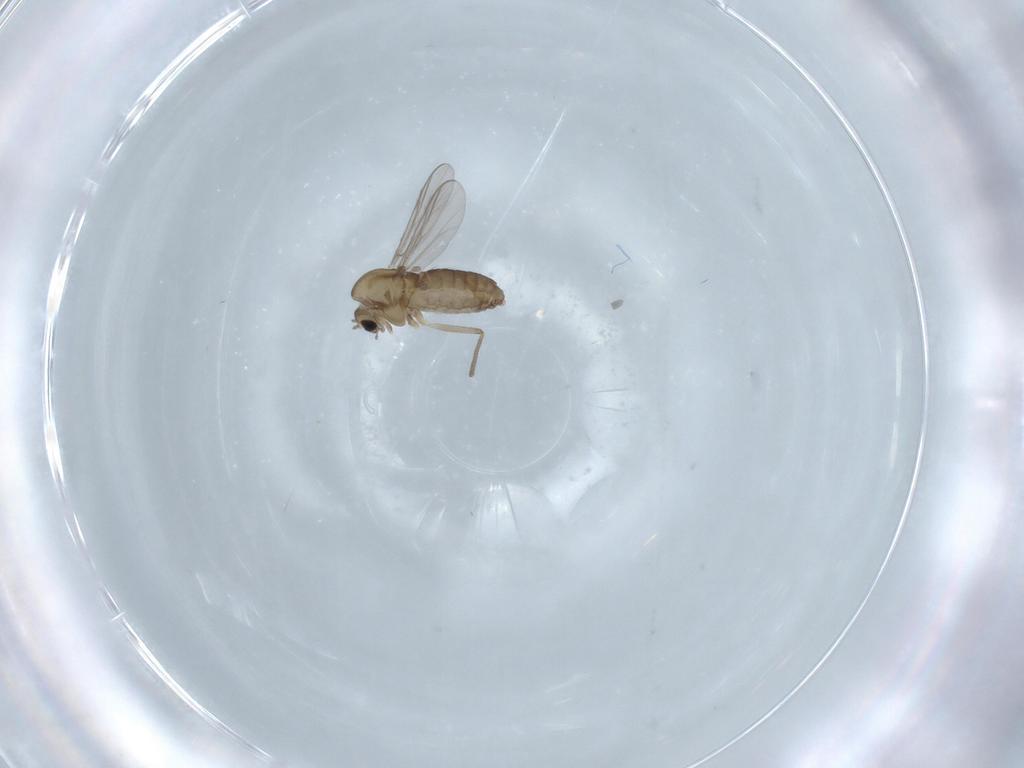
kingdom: Animalia
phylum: Arthropoda
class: Insecta
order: Diptera
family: Chironomidae
